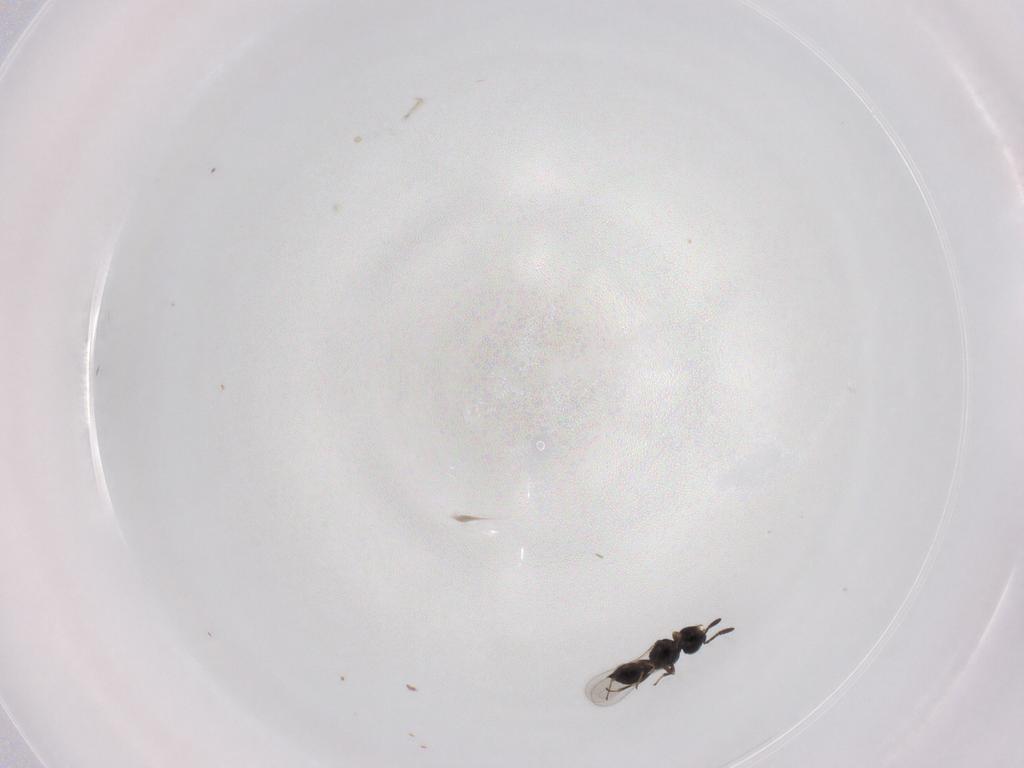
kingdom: Animalia
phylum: Arthropoda
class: Insecta
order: Hymenoptera
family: Scelionidae
